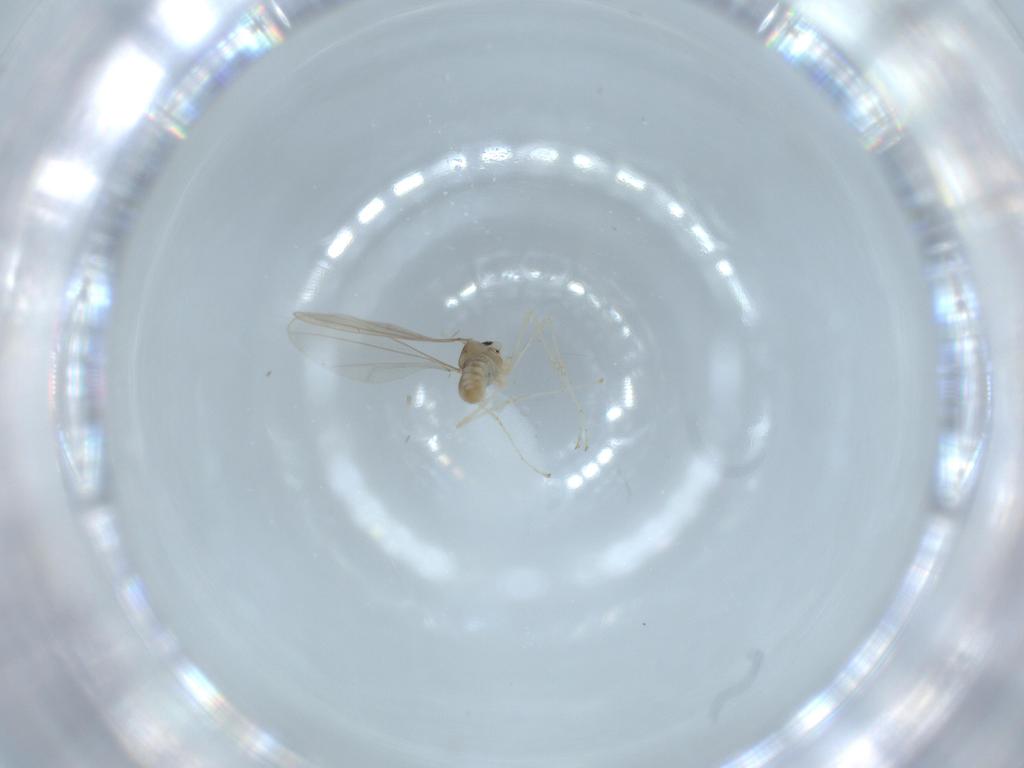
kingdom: Animalia
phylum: Arthropoda
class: Insecta
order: Diptera
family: Cecidomyiidae
